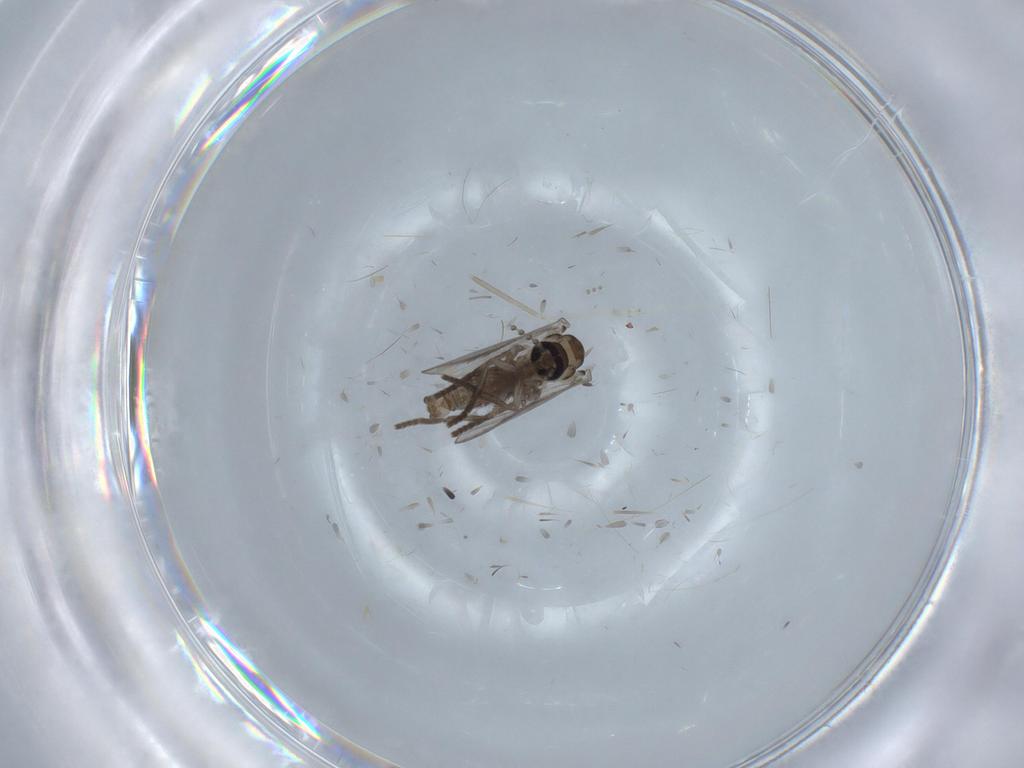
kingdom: Animalia
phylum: Arthropoda
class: Insecta
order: Diptera
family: Psychodidae
